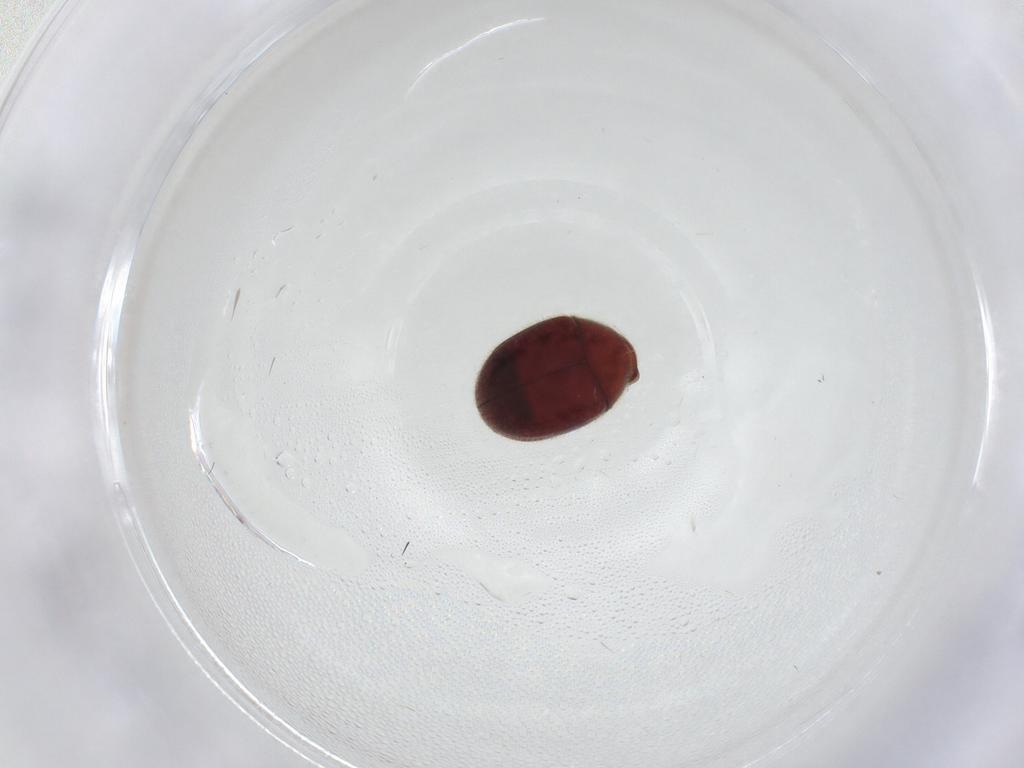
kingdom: Animalia
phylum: Arthropoda
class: Insecta
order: Coleoptera
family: Ptinidae
